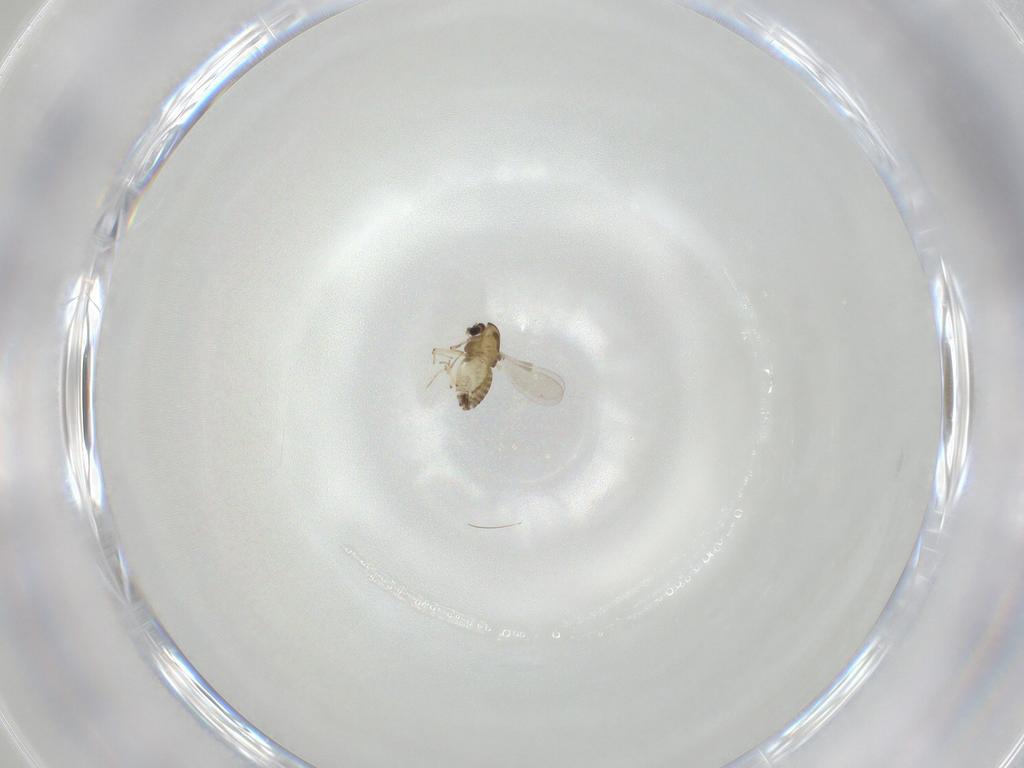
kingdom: Animalia
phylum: Arthropoda
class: Insecta
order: Diptera
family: Chironomidae
